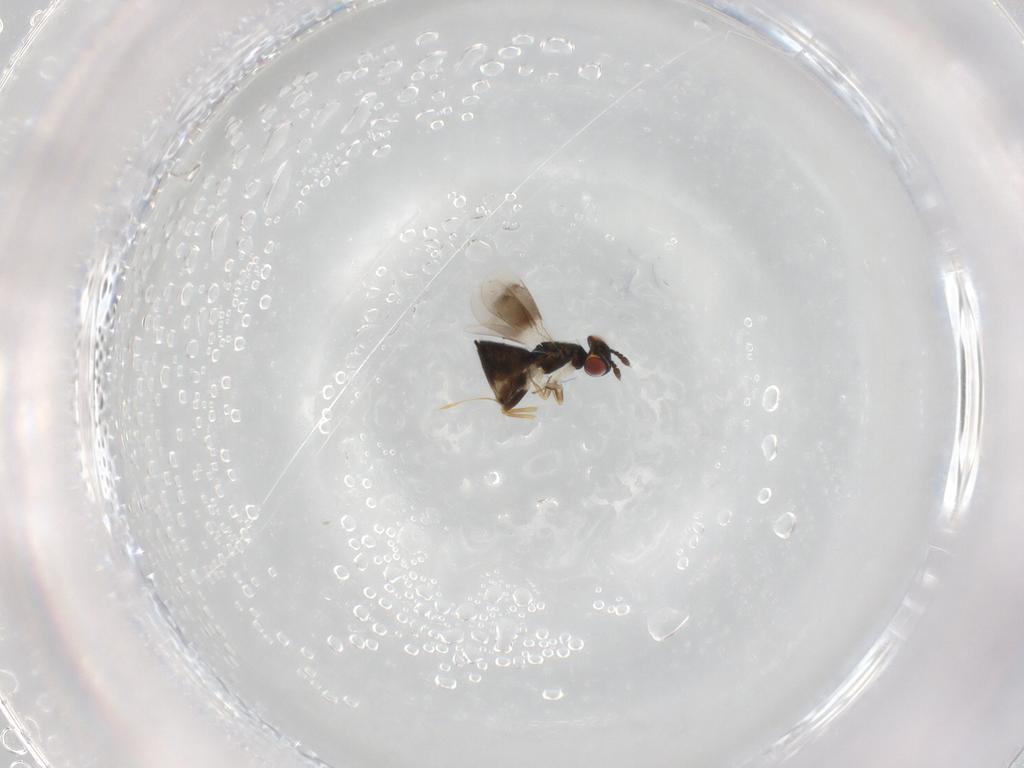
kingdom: Animalia
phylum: Arthropoda
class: Insecta
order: Hymenoptera
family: Eulophidae
